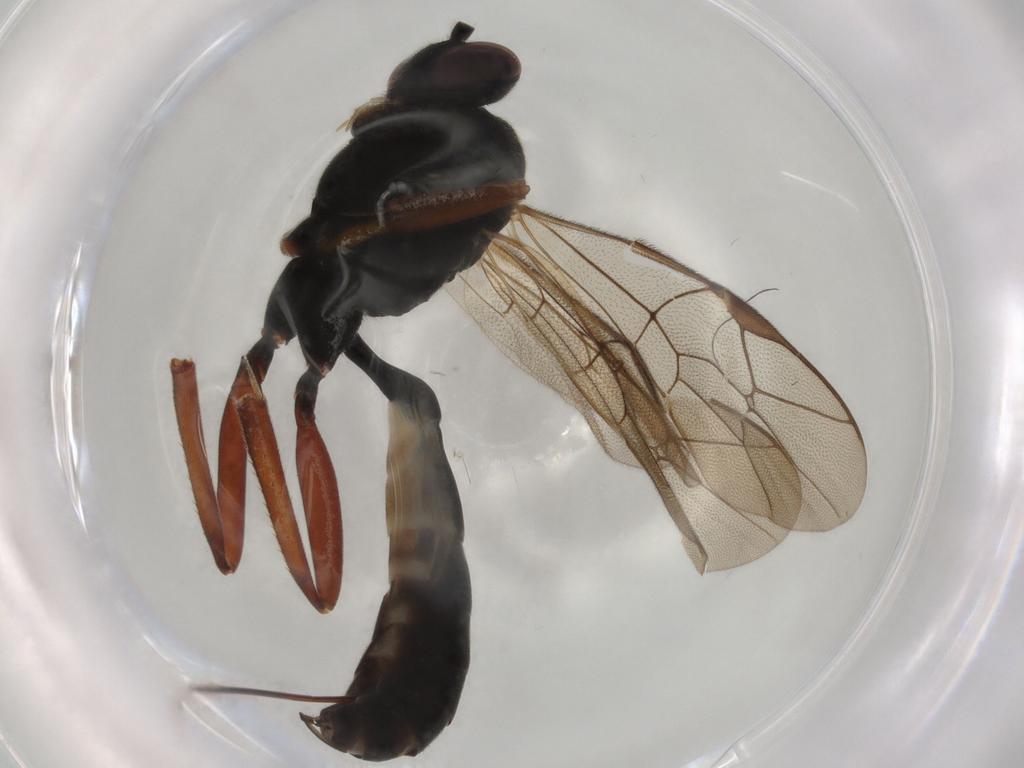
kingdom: Animalia
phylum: Arthropoda
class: Insecta
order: Hymenoptera
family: Ichneumonidae
